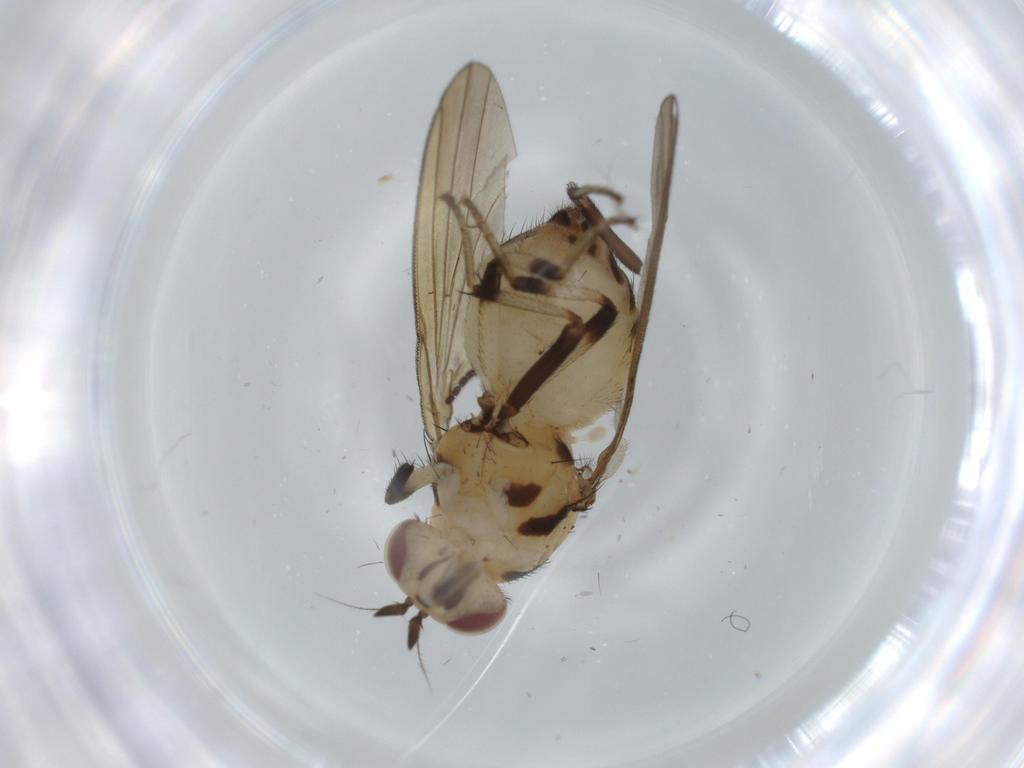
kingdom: Animalia
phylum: Arthropoda
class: Insecta
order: Diptera
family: Lauxaniidae
